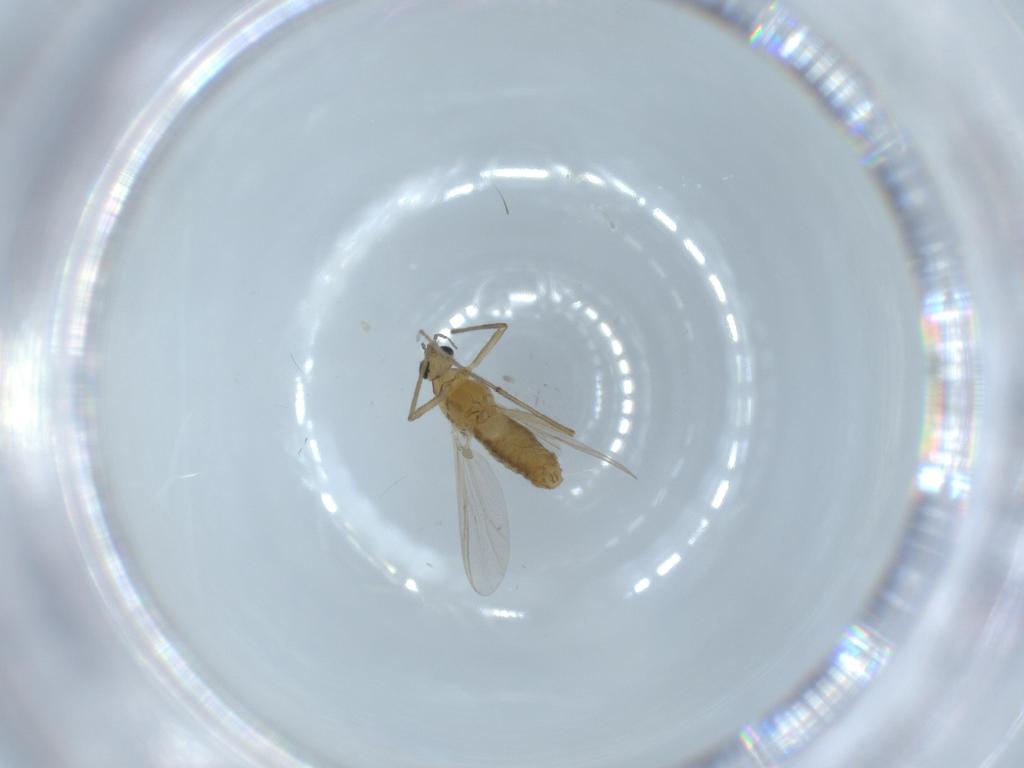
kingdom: Animalia
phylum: Arthropoda
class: Insecta
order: Diptera
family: Chironomidae
